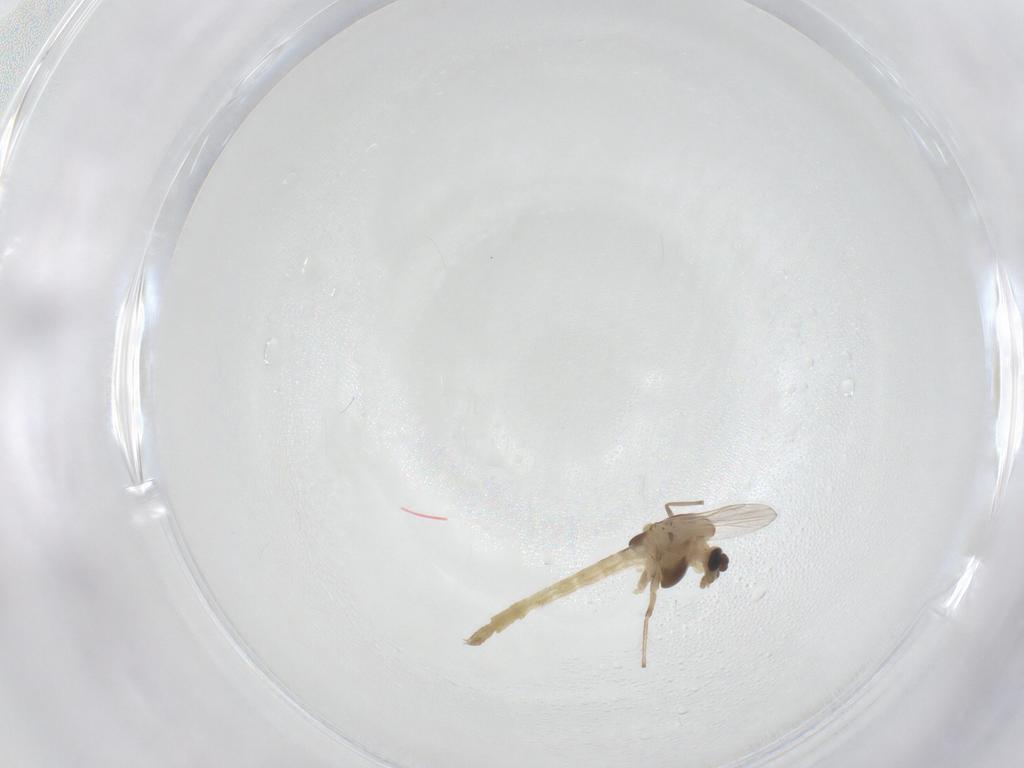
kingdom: Animalia
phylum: Arthropoda
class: Insecta
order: Diptera
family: Chironomidae
